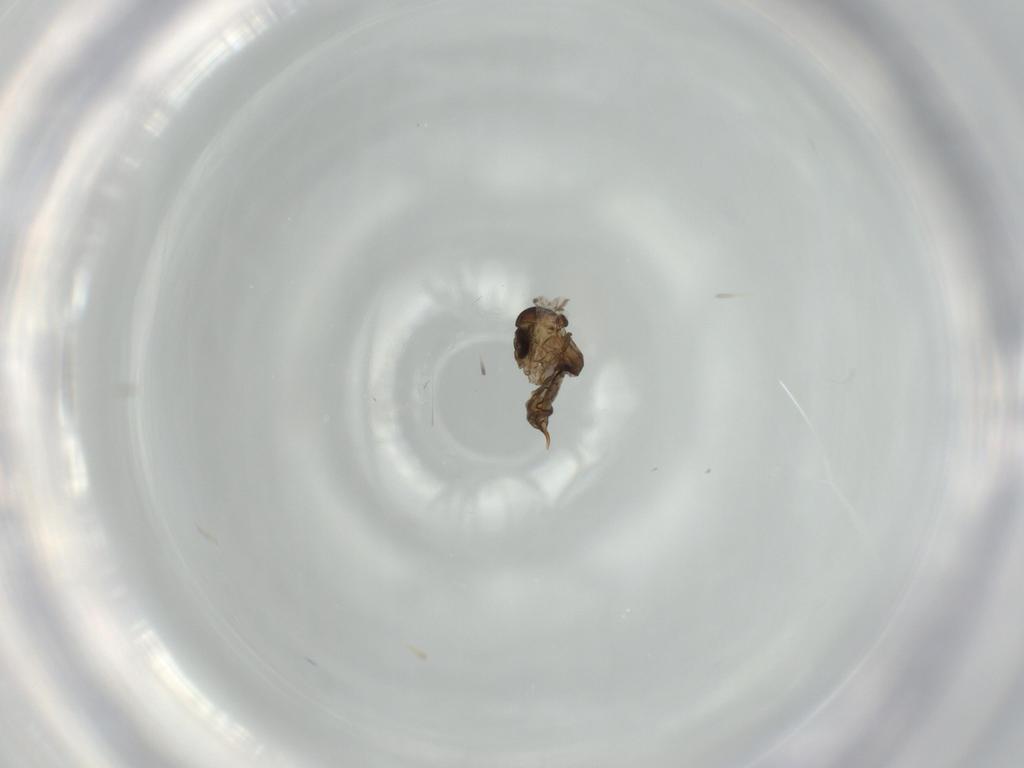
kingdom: Animalia
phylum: Arthropoda
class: Insecta
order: Diptera
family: Psychodidae
